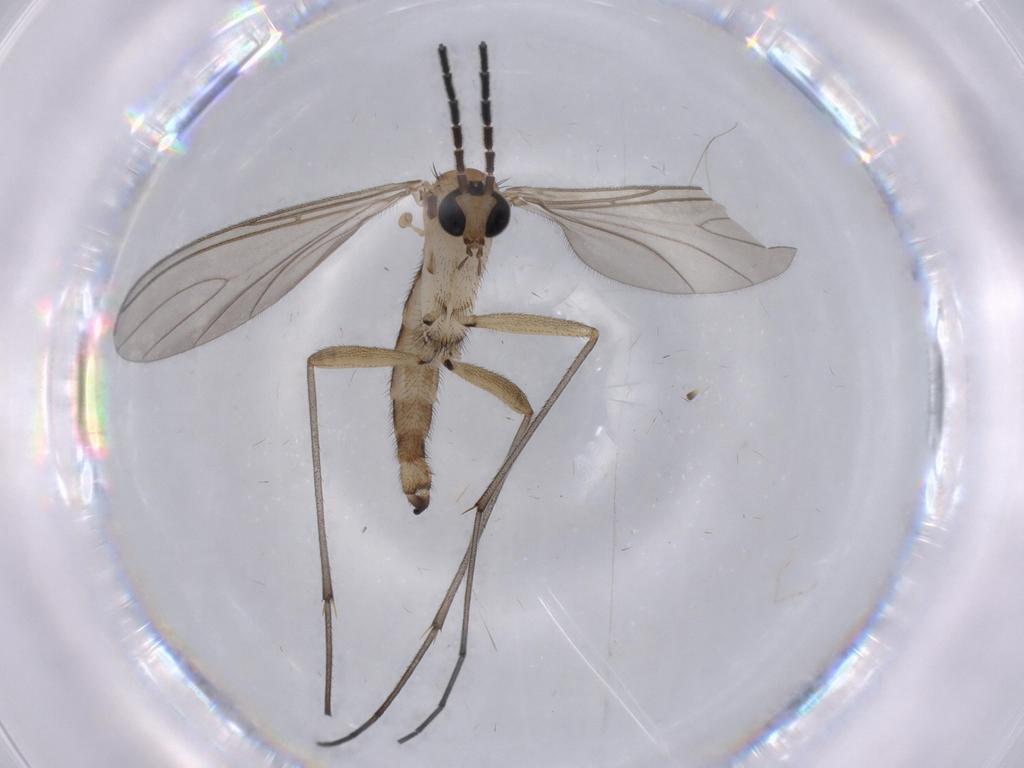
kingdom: Animalia
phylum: Arthropoda
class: Insecta
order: Diptera
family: Sciaridae
